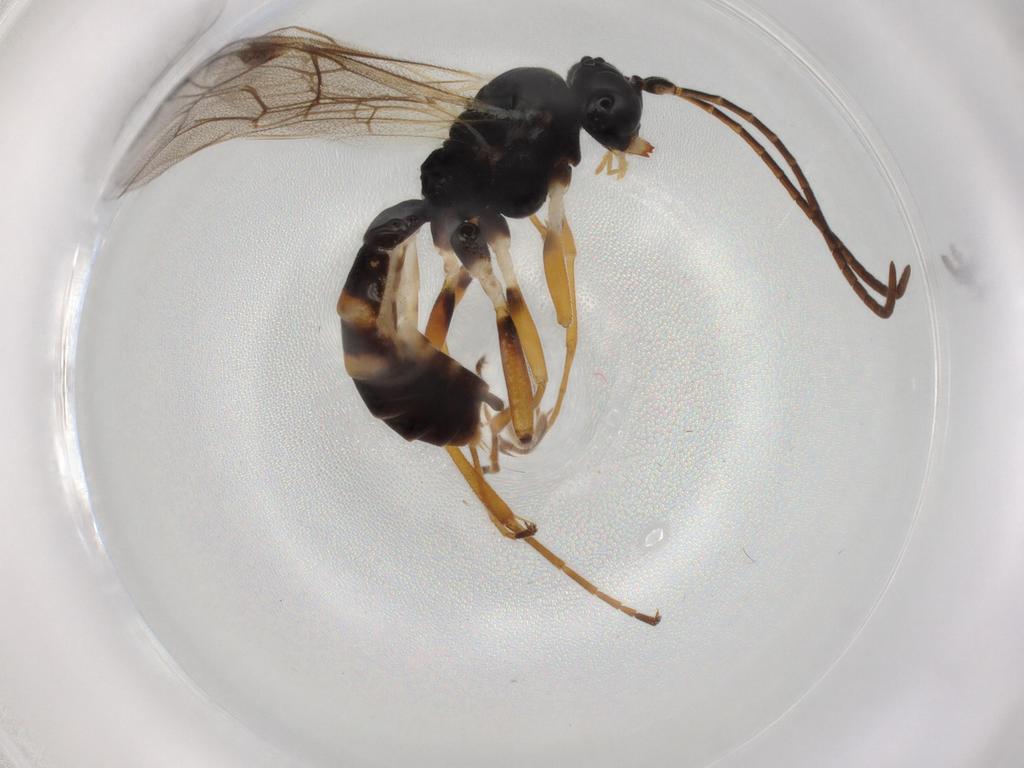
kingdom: Animalia
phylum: Arthropoda
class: Insecta
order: Hymenoptera
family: Ichneumonidae
